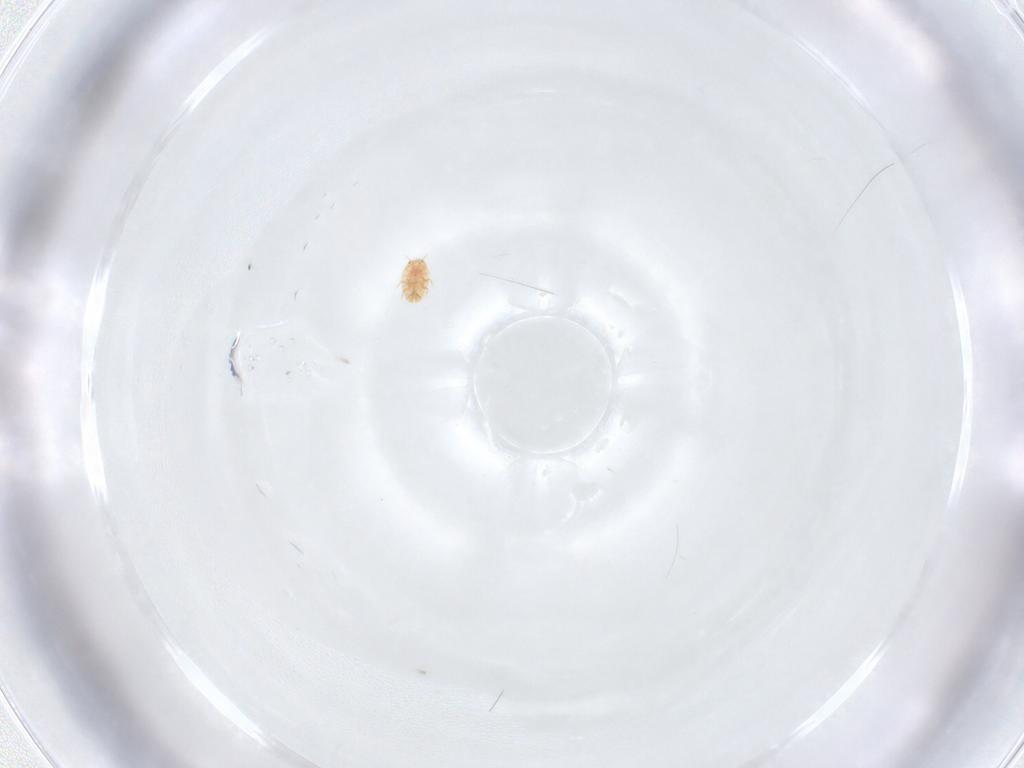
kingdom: Animalia
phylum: Arthropoda
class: Insecta
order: Hemiptera
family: Coccidae
